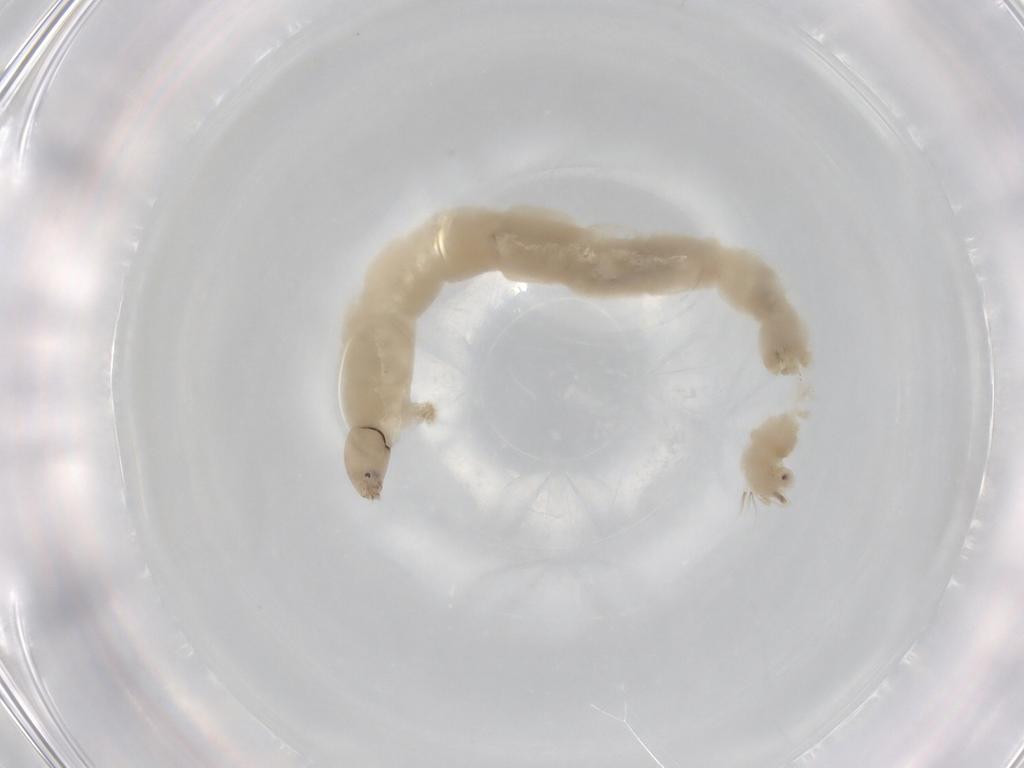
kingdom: Animalia
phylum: Arthropoda
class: Insecta
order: Diptera
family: Chironomidae
